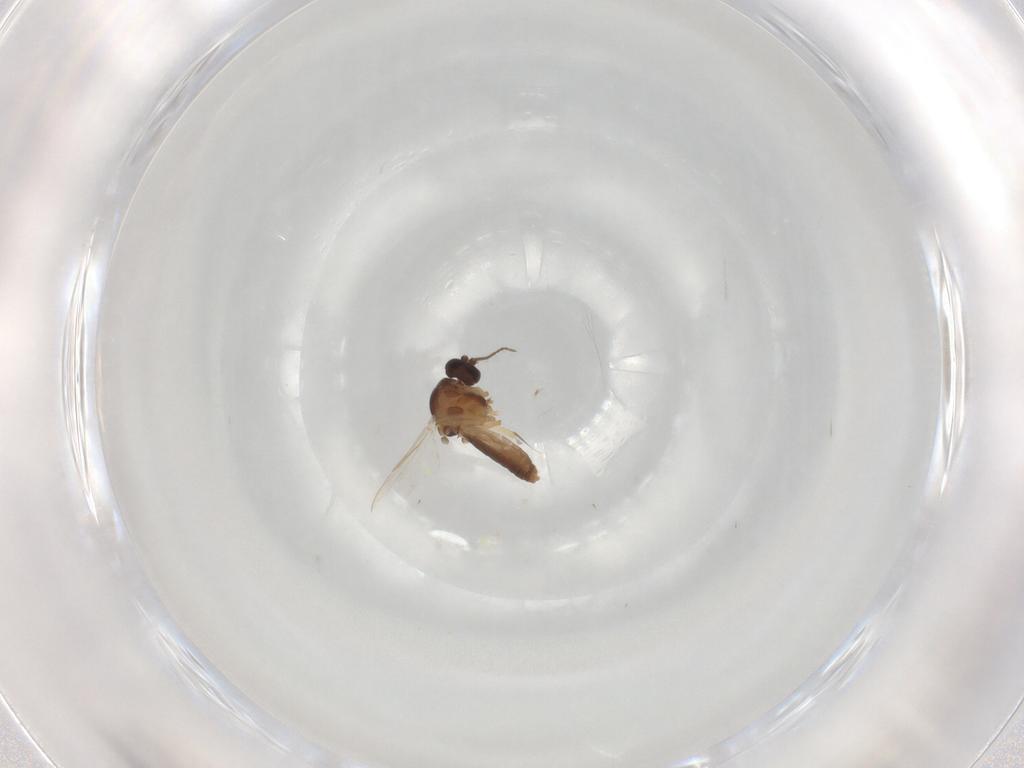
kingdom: Animalia
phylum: Arthropoda
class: Insecta
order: Diptera
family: Ceratopogonidae
